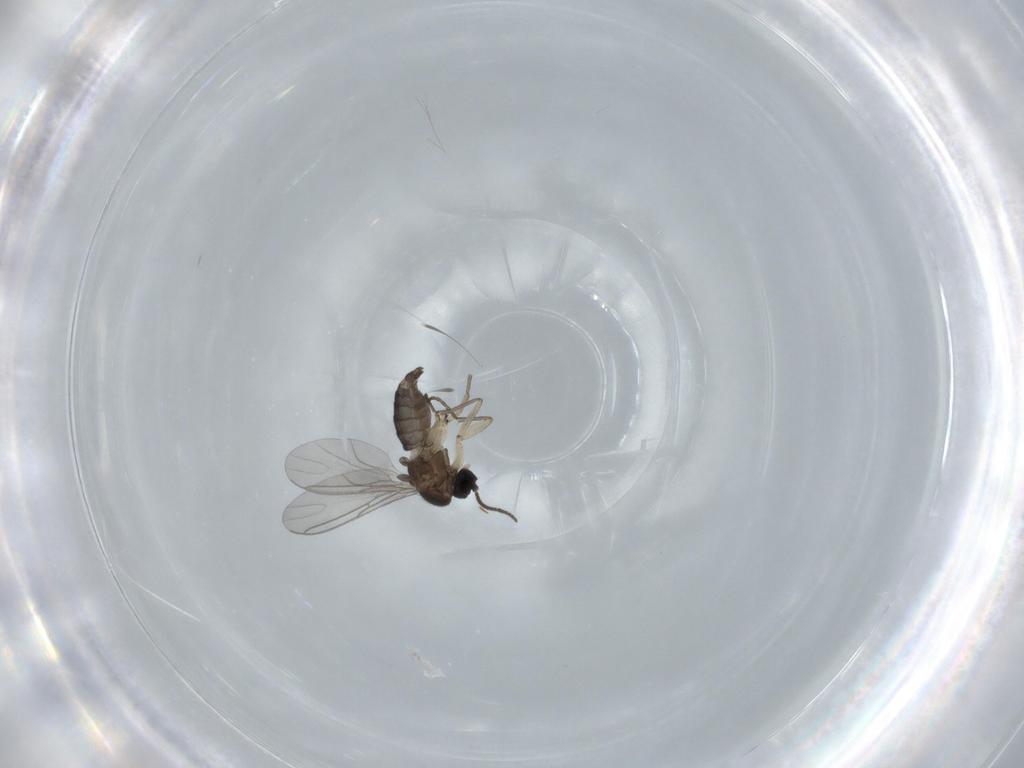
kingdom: Animalia
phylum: Arthropoda
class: Insecta
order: Diptera
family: Sciaridae
